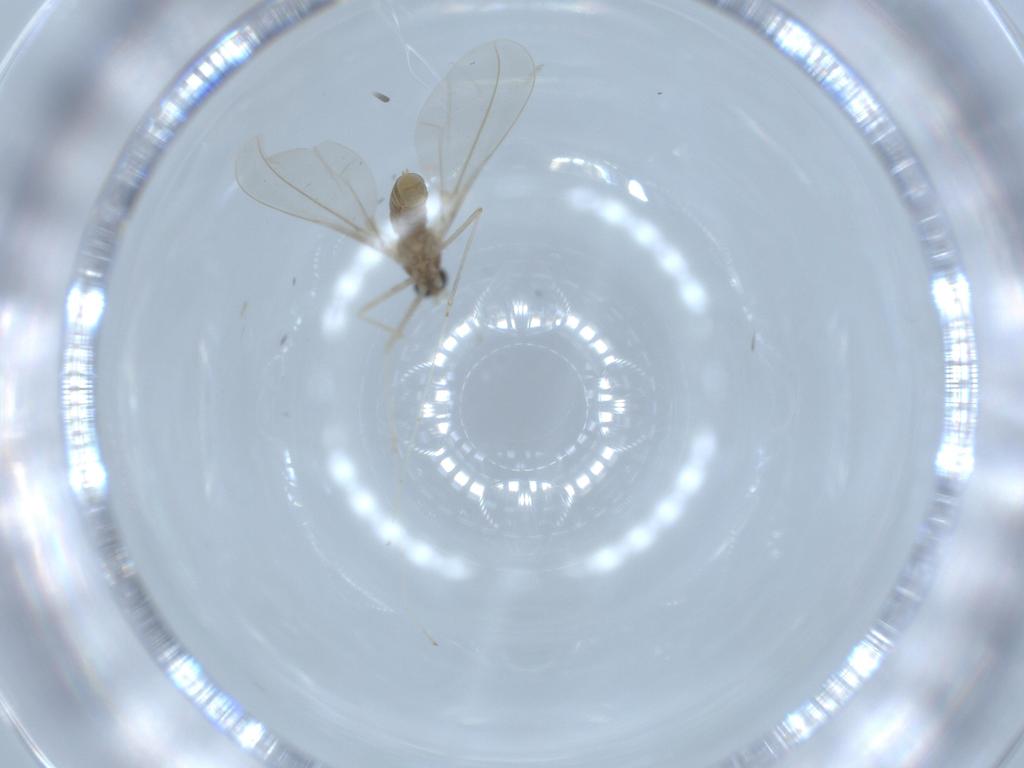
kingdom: Animalia
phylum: Arthropoda
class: Insecta
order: Diptera
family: Cecidomyiidae
